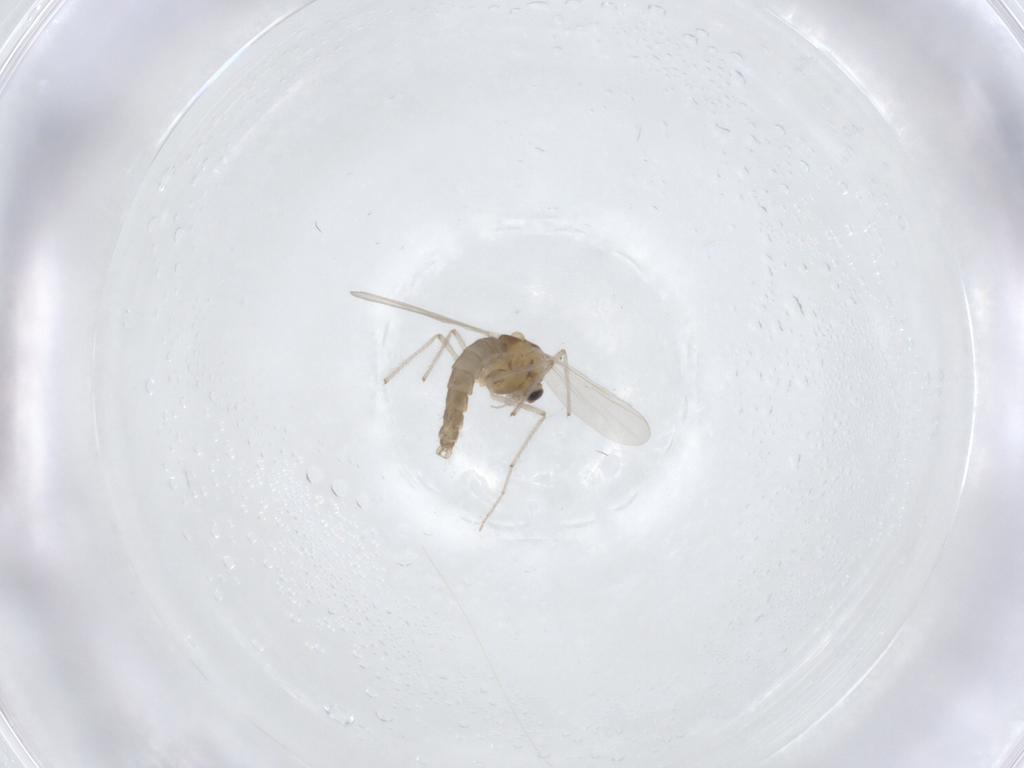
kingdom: Animalia
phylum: Arthropoda
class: Insecta
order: Diptera
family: Chironomidae
